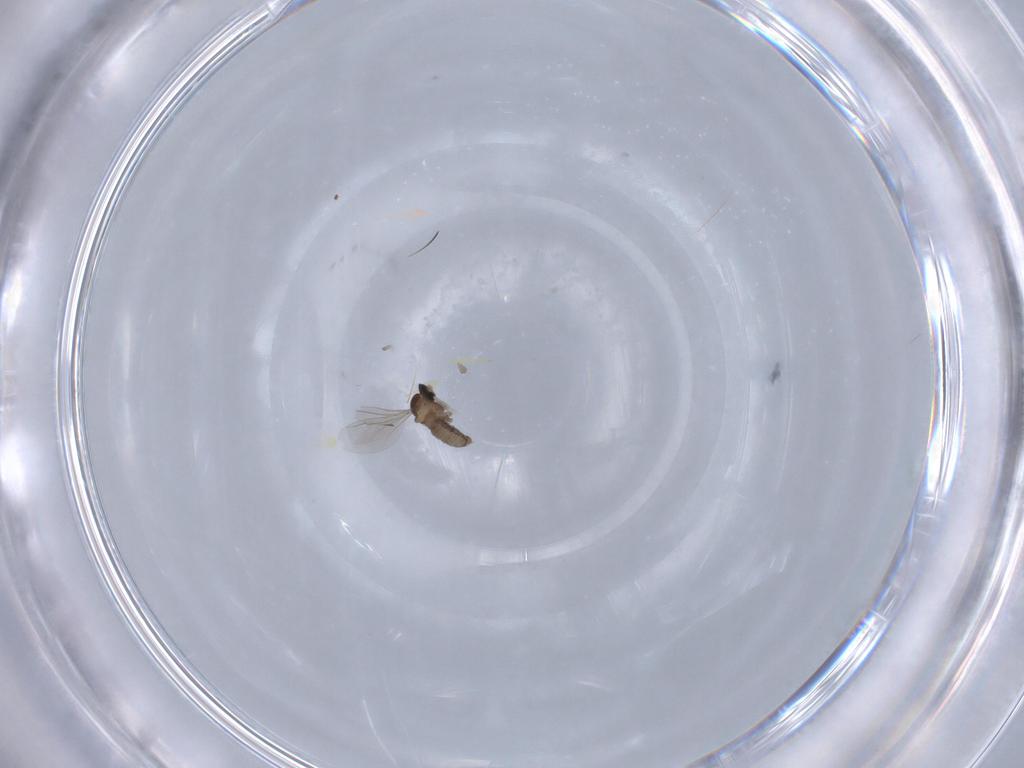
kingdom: Animalia
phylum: Arthropoda
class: Insecta
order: Diptera
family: Cecidomyiidae
